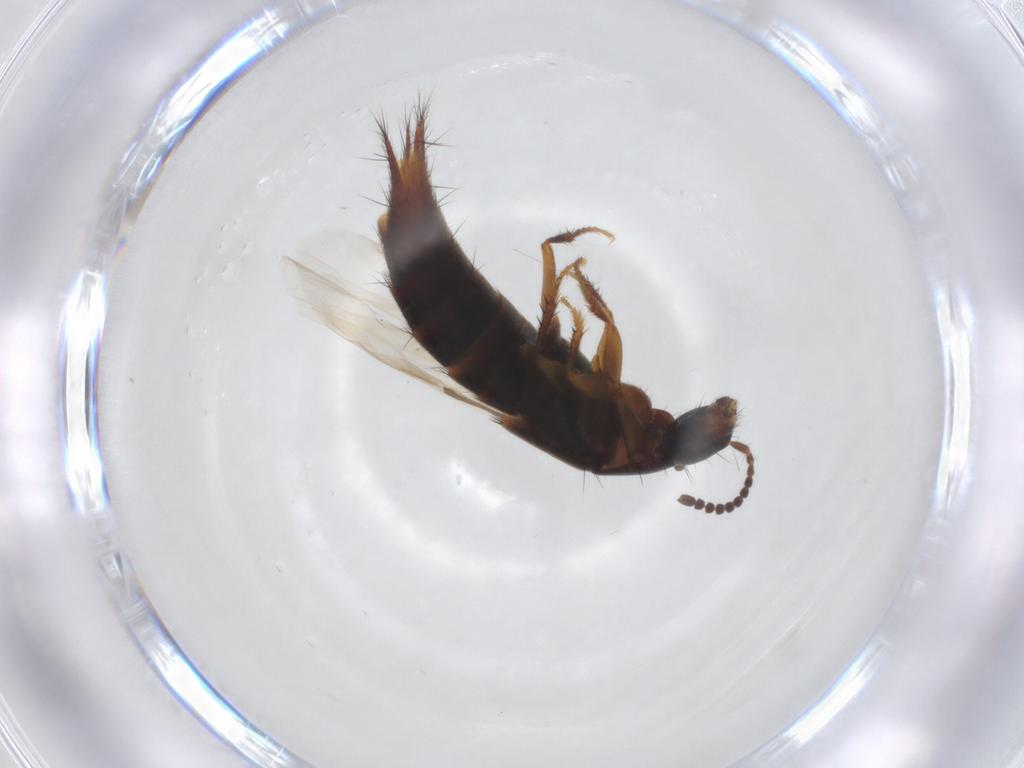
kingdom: Animalia
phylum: Arthropoda
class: Insecta
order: Coleoptera
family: Staphylinidae
